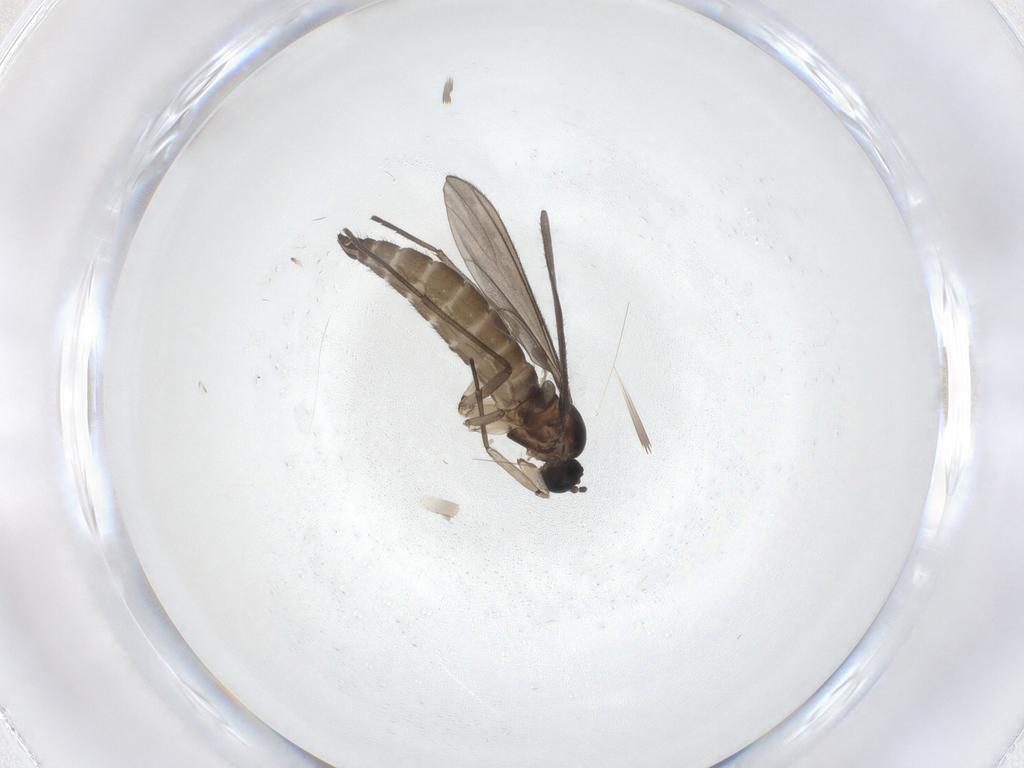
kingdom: Animalia
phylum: Arthropoda
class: Insecta
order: Diptera
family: Sciaridae
